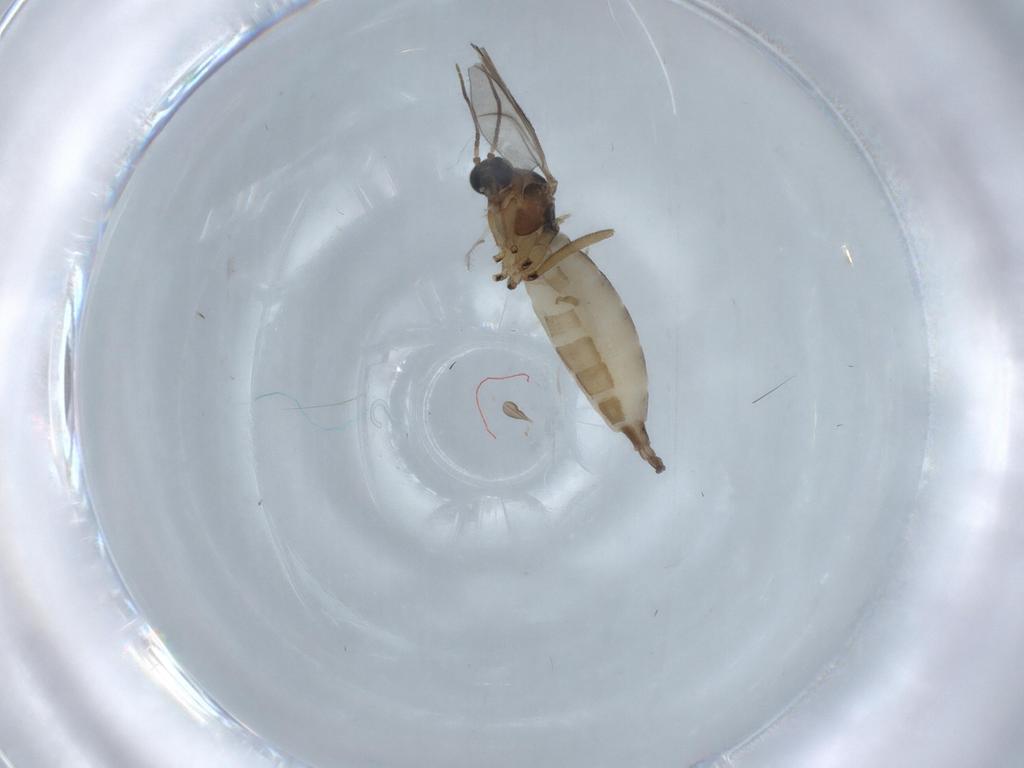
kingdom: Animalia
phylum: Arthropoda
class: Insecta
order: Diptera
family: Sciaridae
